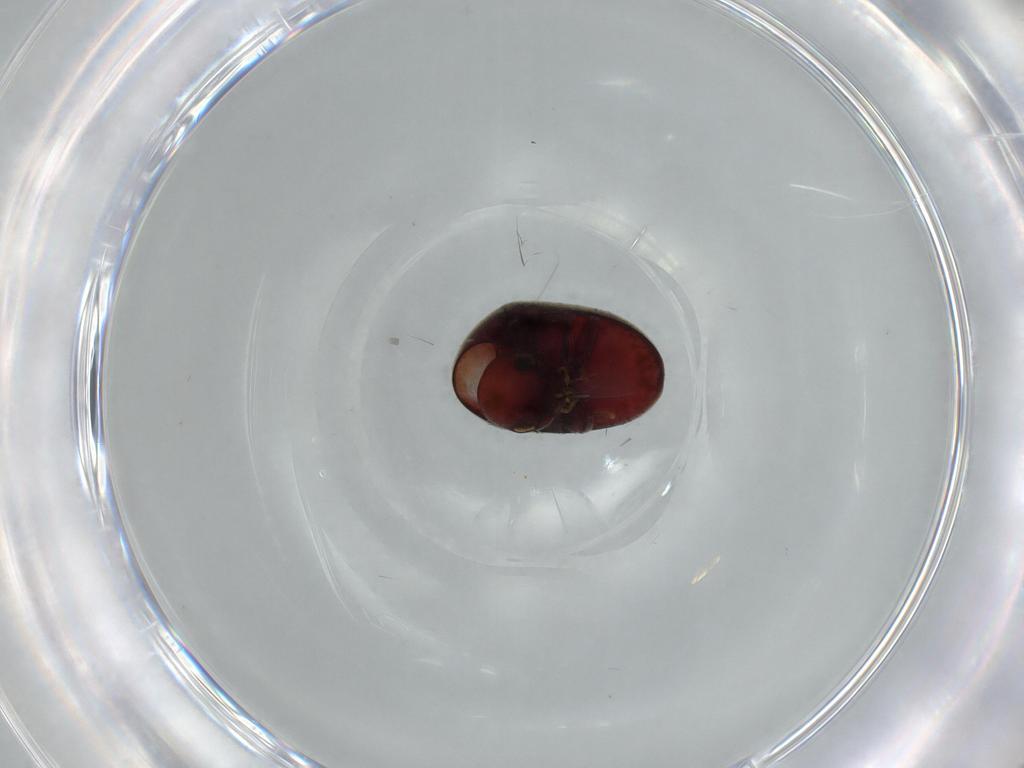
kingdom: Animalia
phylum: Arthropoda
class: Insecta
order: Coleoptera
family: Ptinidae
